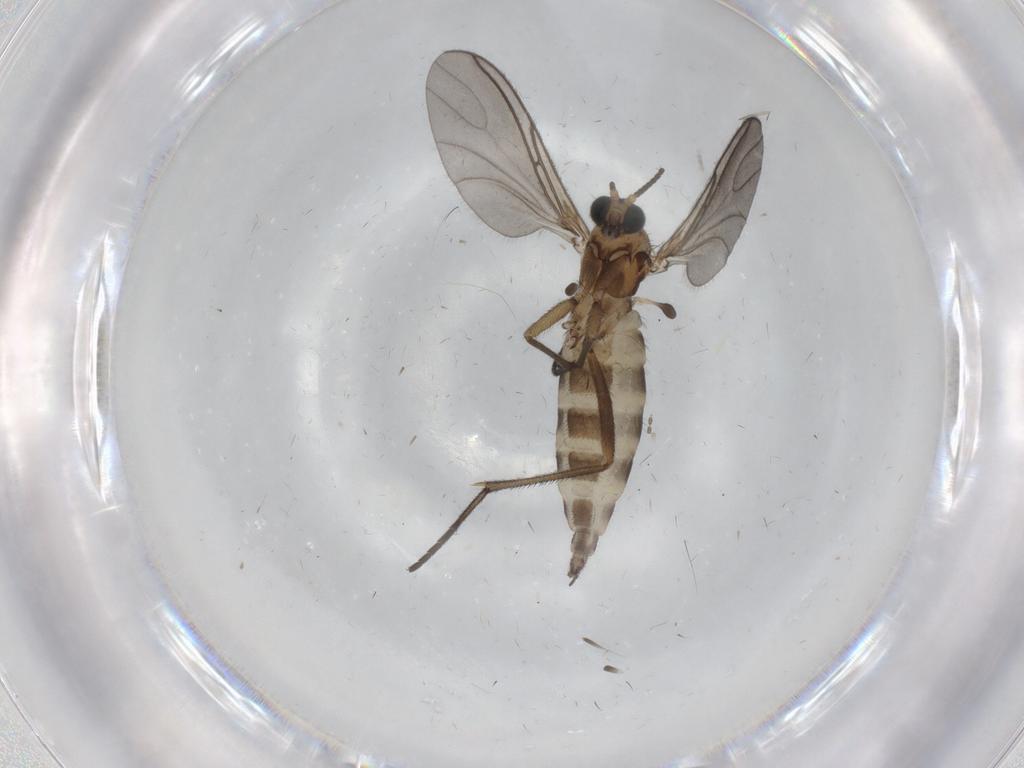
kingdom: Animalia
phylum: Arthropoda
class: Insecta
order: Diptera
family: Sciaridae
